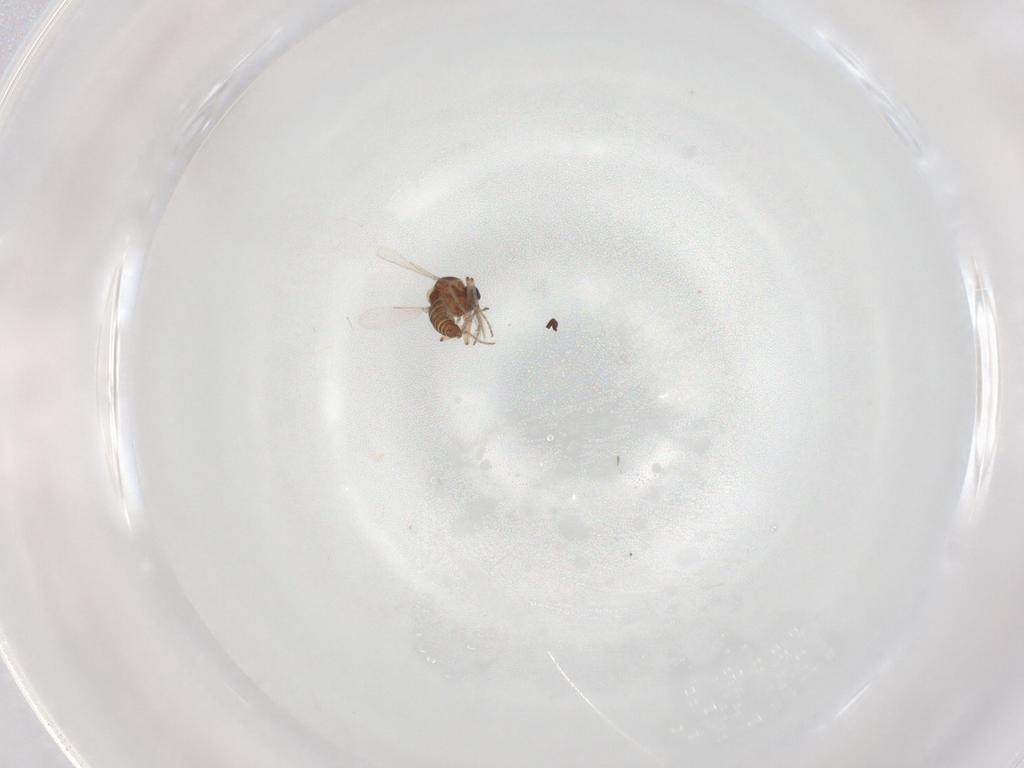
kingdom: Animalia
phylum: Arthropoda
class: Insecta
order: Diptera
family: Ceratopogonidae
